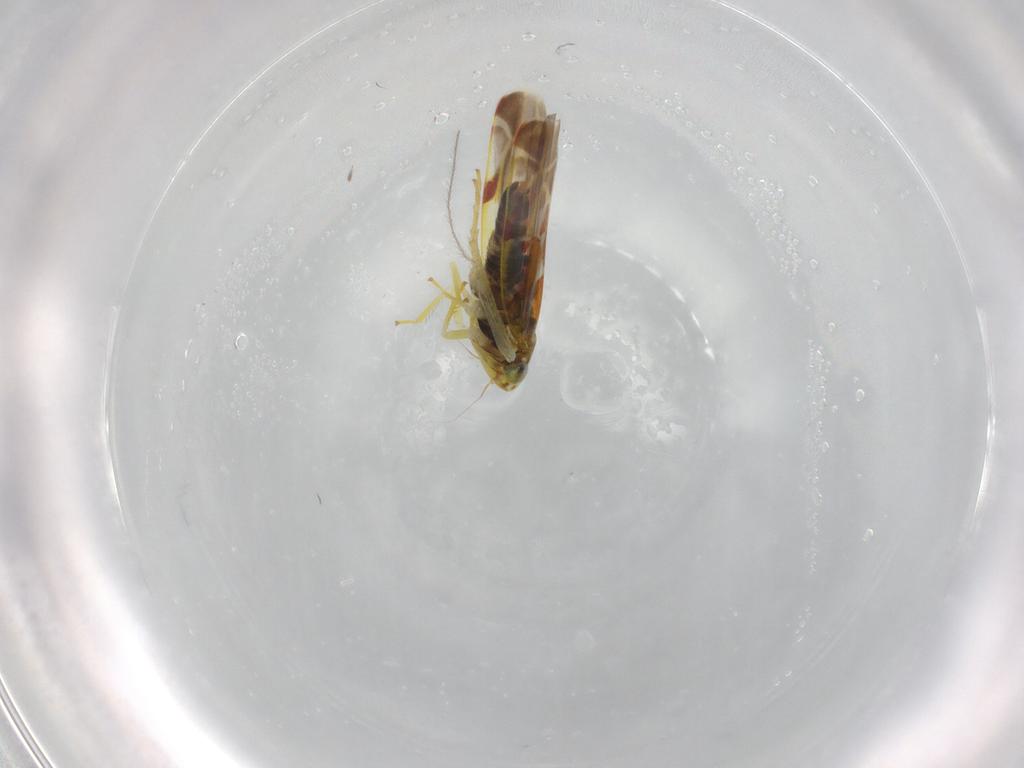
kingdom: Animalia
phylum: Arthropoda
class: Insecta
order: Hemiptera
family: Cicadellidae
